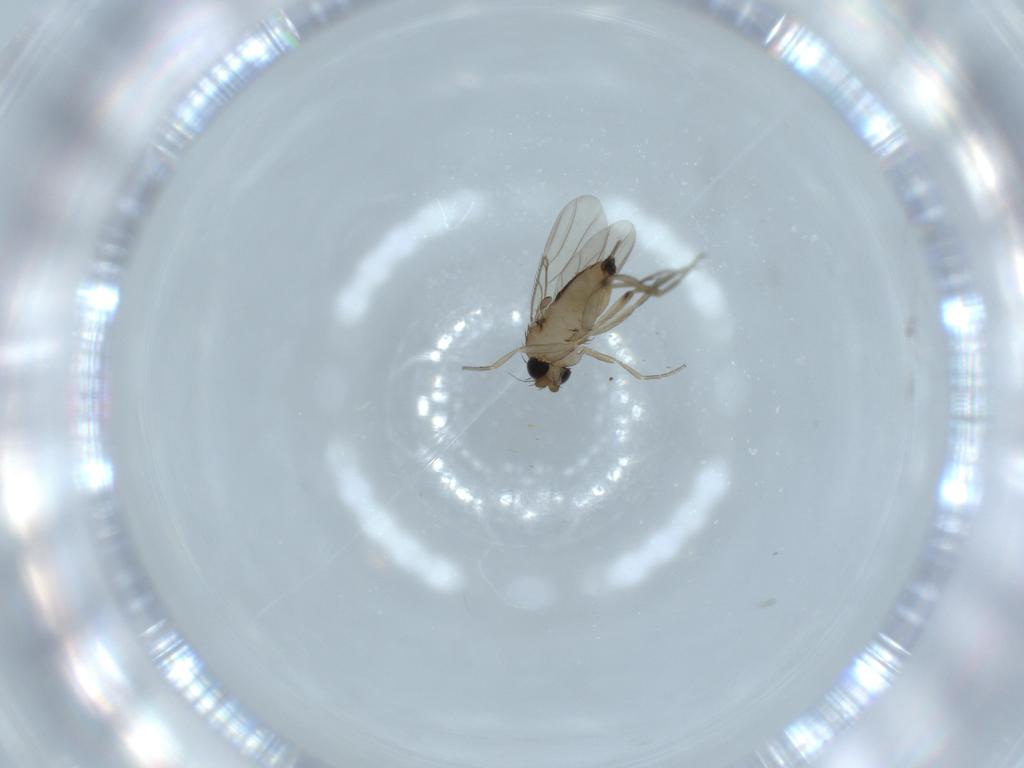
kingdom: Animalia
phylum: Arthropoda
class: Insecta
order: Diptera
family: Phoridae
